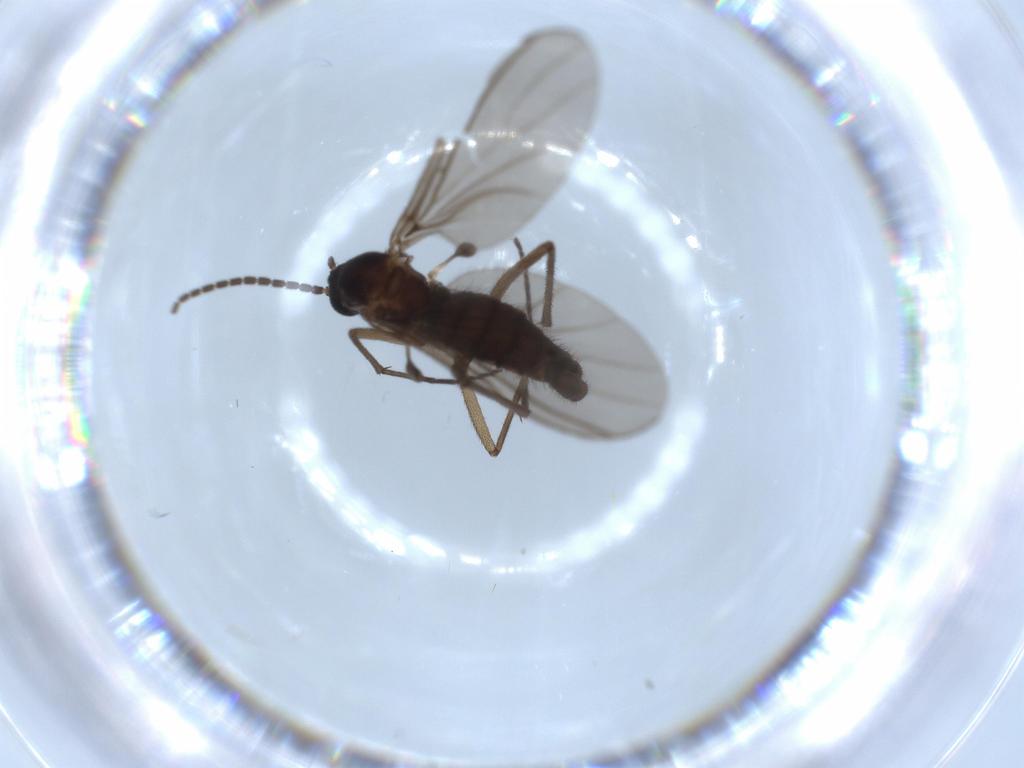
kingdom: Animalia
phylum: Arthropoda
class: Insecta
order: Diptera
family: Sciaridae
